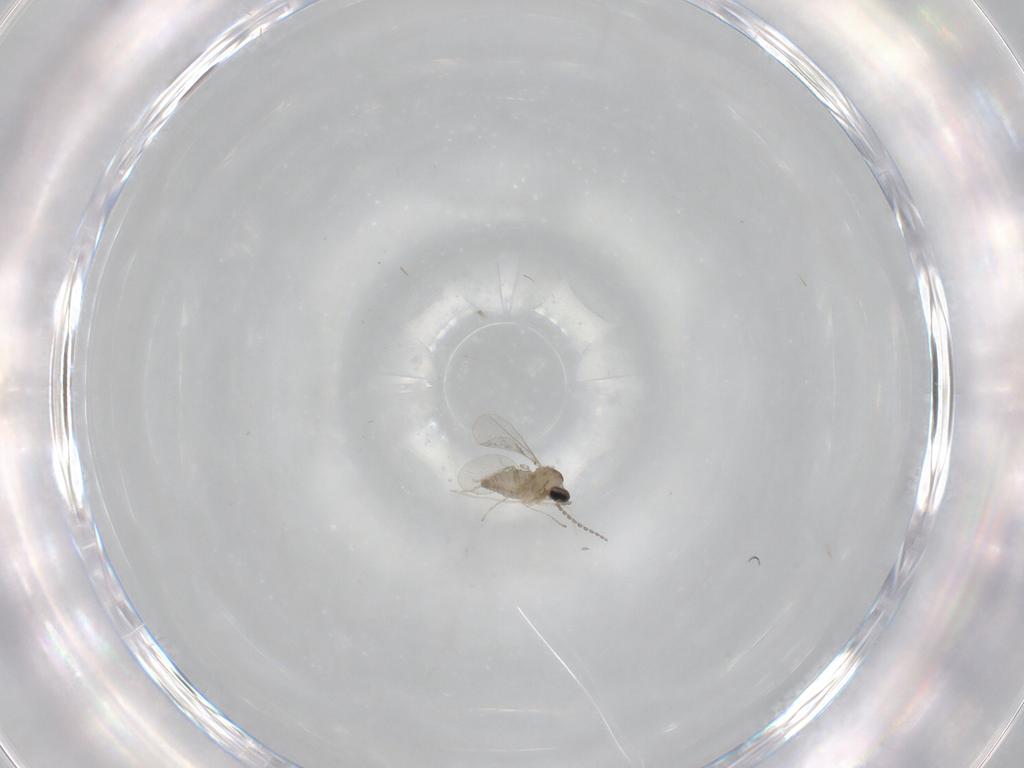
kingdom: Animalia
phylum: Arthropoda
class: Insecta
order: Diptera
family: Cecidomyiidae
